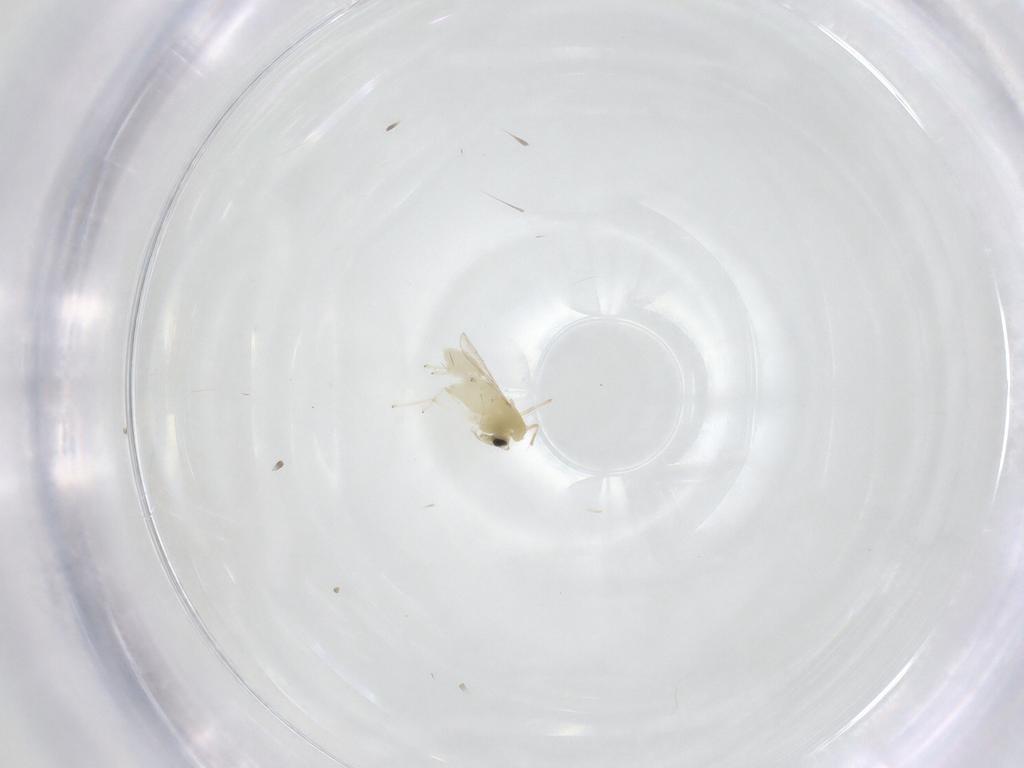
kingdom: Animalia
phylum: Arthropoda
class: Insecta
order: Diptera
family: Chironomidae
